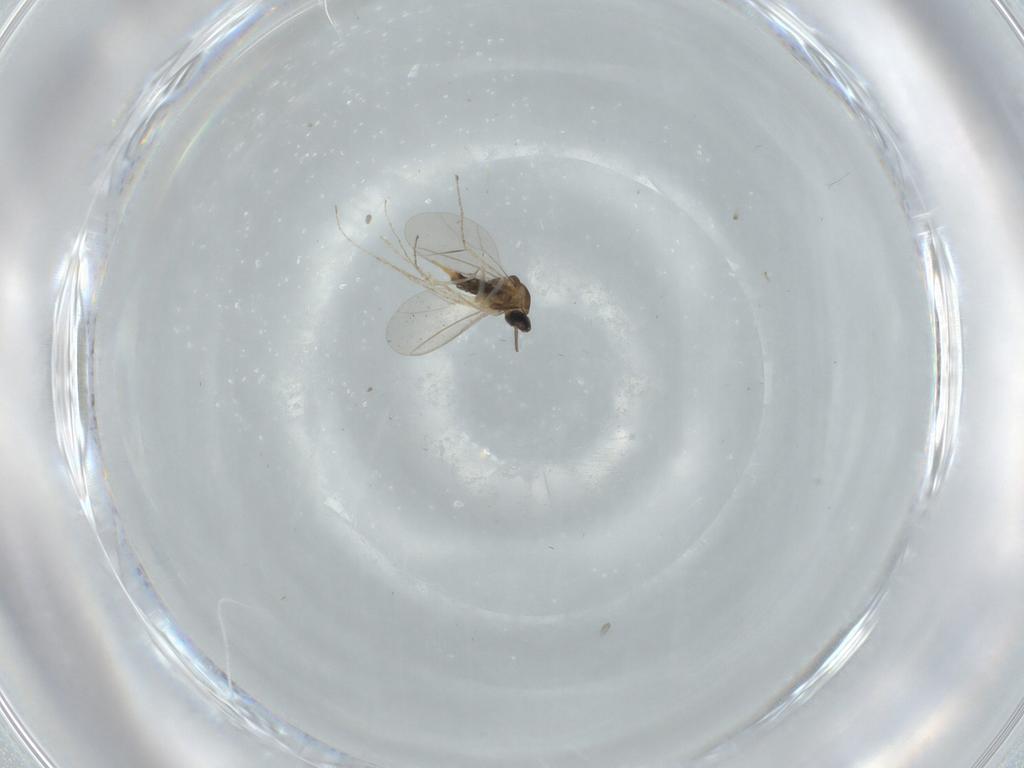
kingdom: Animalia
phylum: Arthropoda
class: Insecta
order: Diptera
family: Cecidomyiidae
